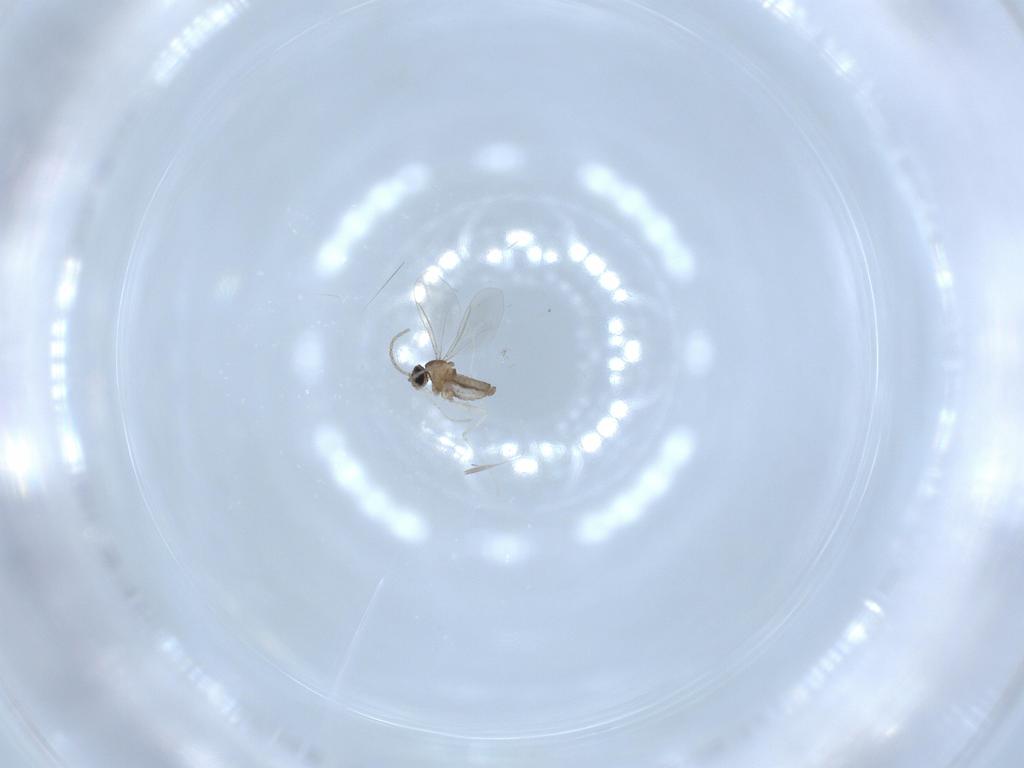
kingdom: Animalia
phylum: Arthropoda
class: Insecta
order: Diptera
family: Cecidomyiidae
